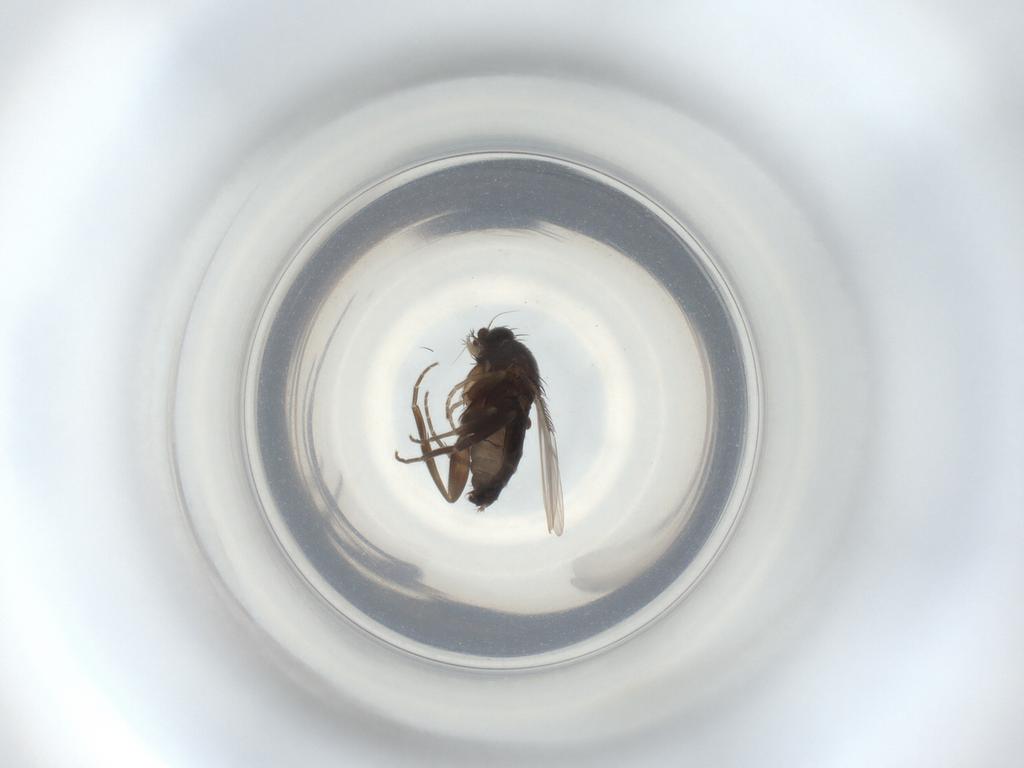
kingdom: Animalia
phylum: Arthropoda
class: Insecta
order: Diptera
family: Phoridae
